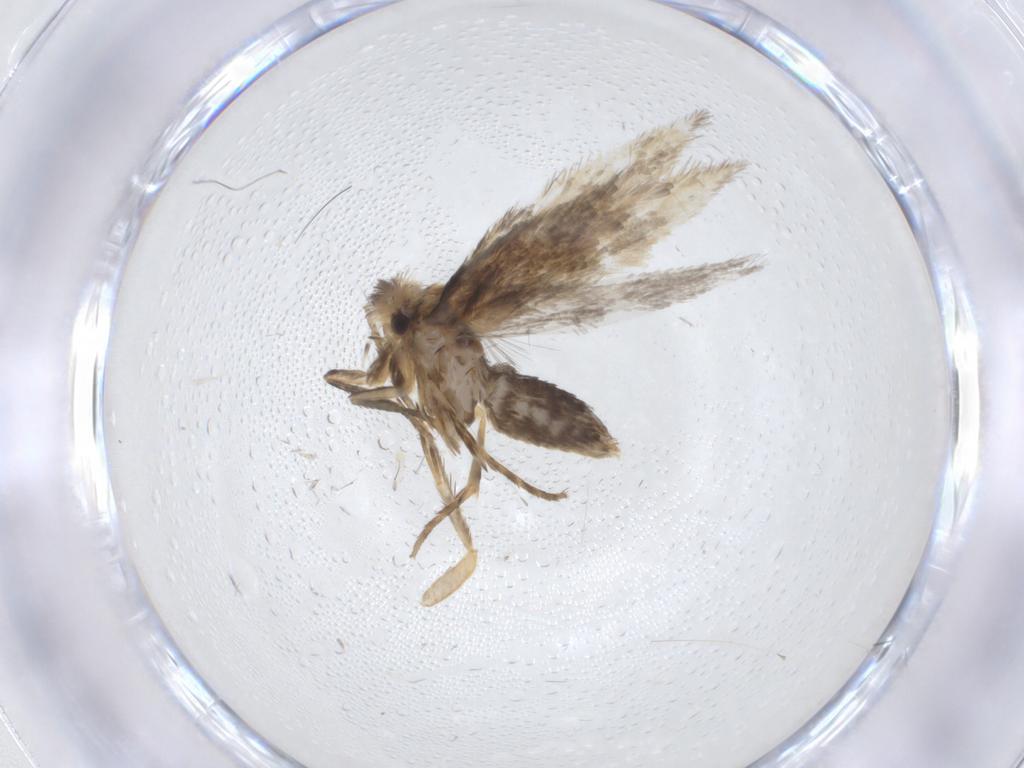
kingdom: Animalia
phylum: Arthropoda
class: Insecta
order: Lepidoptera
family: Nepticulidae
